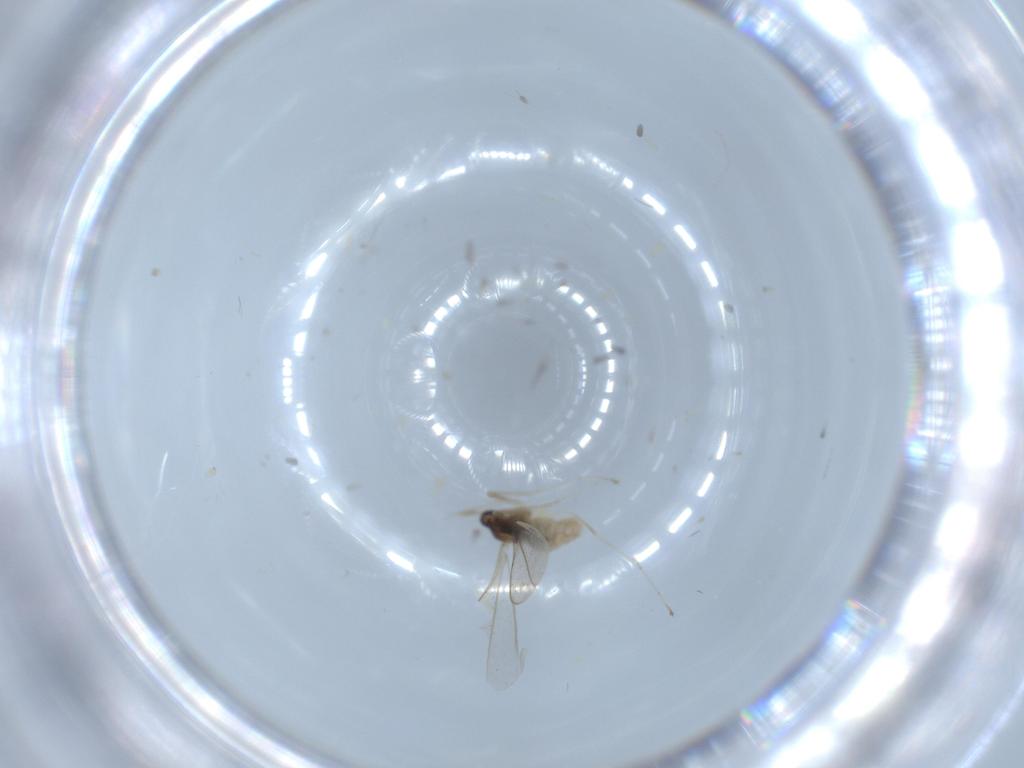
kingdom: Animalia
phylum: Arthropoda
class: Insecta
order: Diptera
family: Cecidomyiidae
